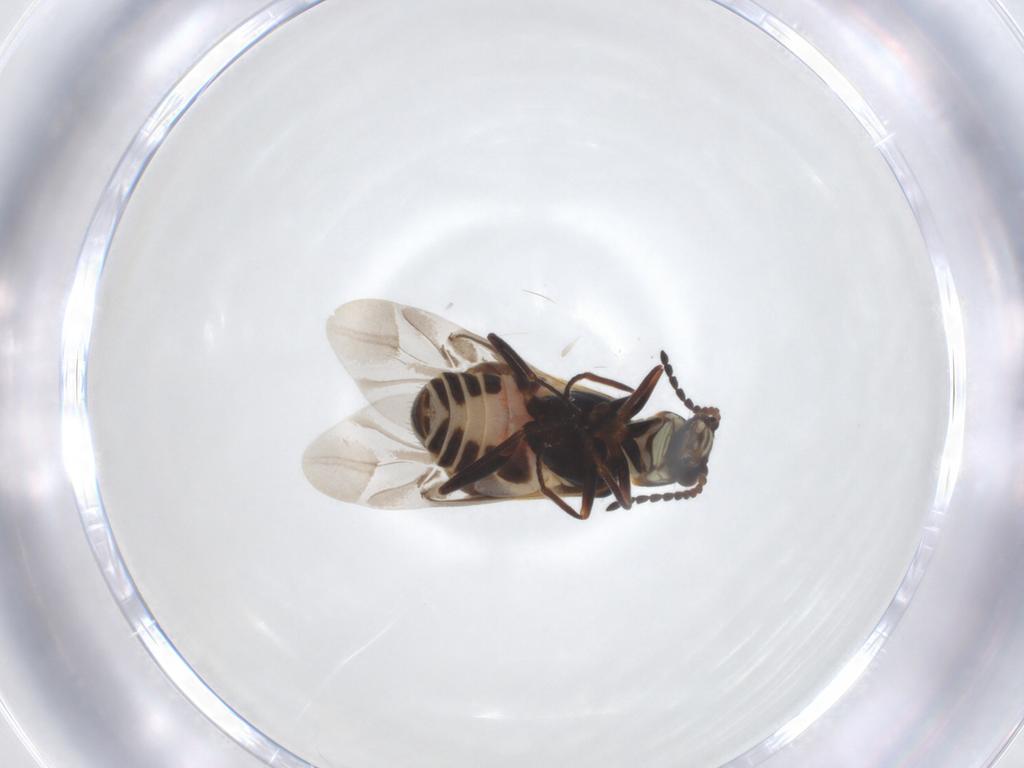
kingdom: Animalia
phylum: Arthropoda
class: Insecta
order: Coleoptera
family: Melyridae
